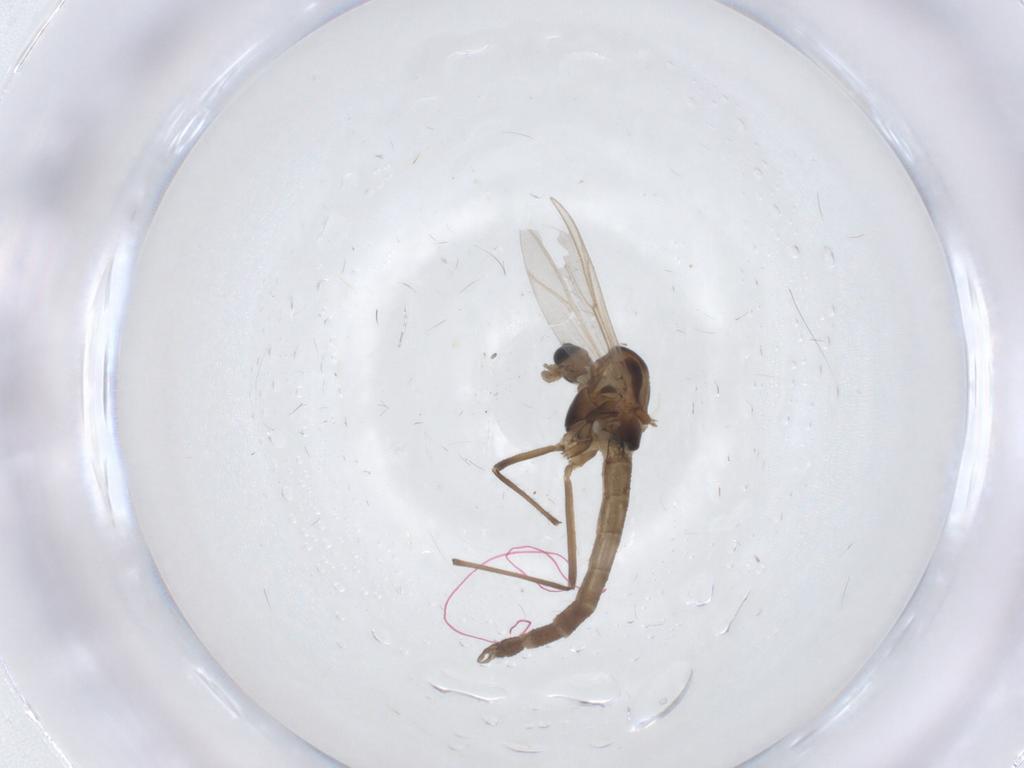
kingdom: Animalia
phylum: Arthropoda
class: Insecta
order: Diptera
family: Chironomidae
